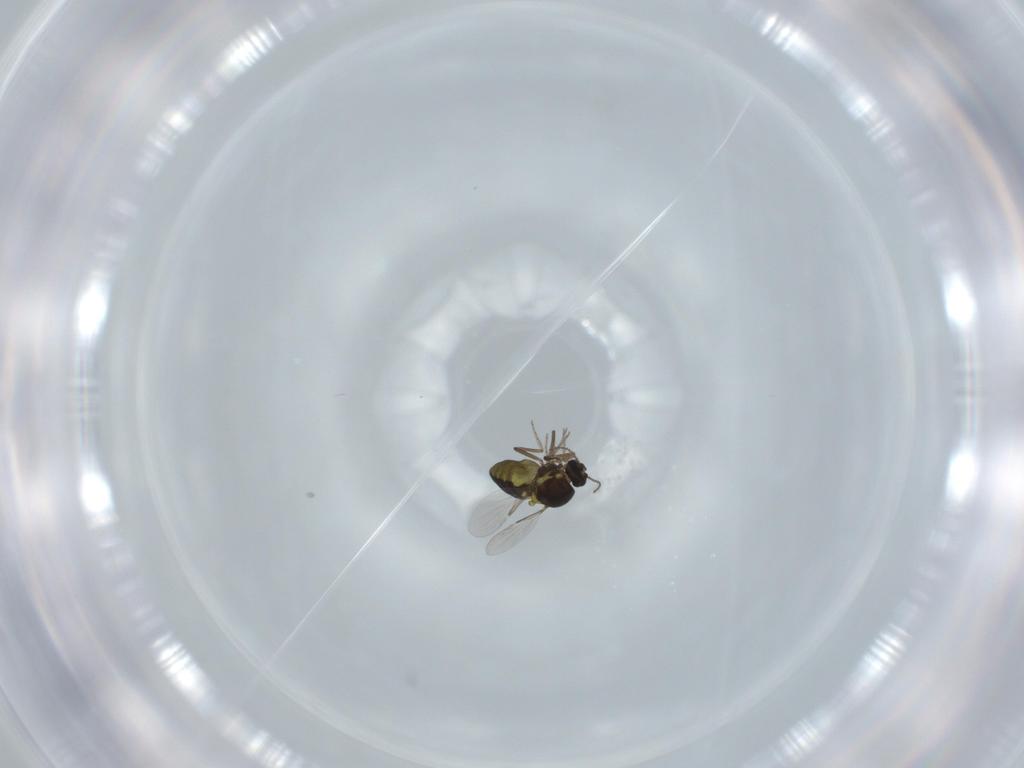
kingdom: Animalia
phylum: Arthropoda
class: Insecta
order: Diptera
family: Ceratopogonidae
